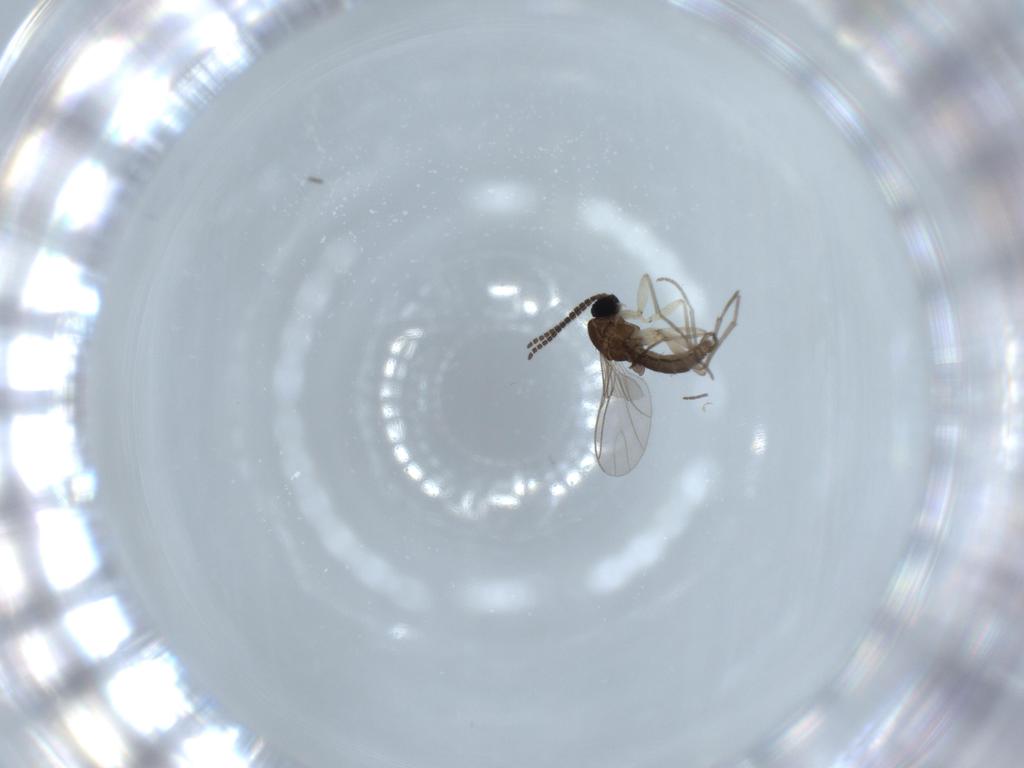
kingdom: Animalia
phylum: Arthropoda
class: Insecta
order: Diptera
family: Sciaridae
